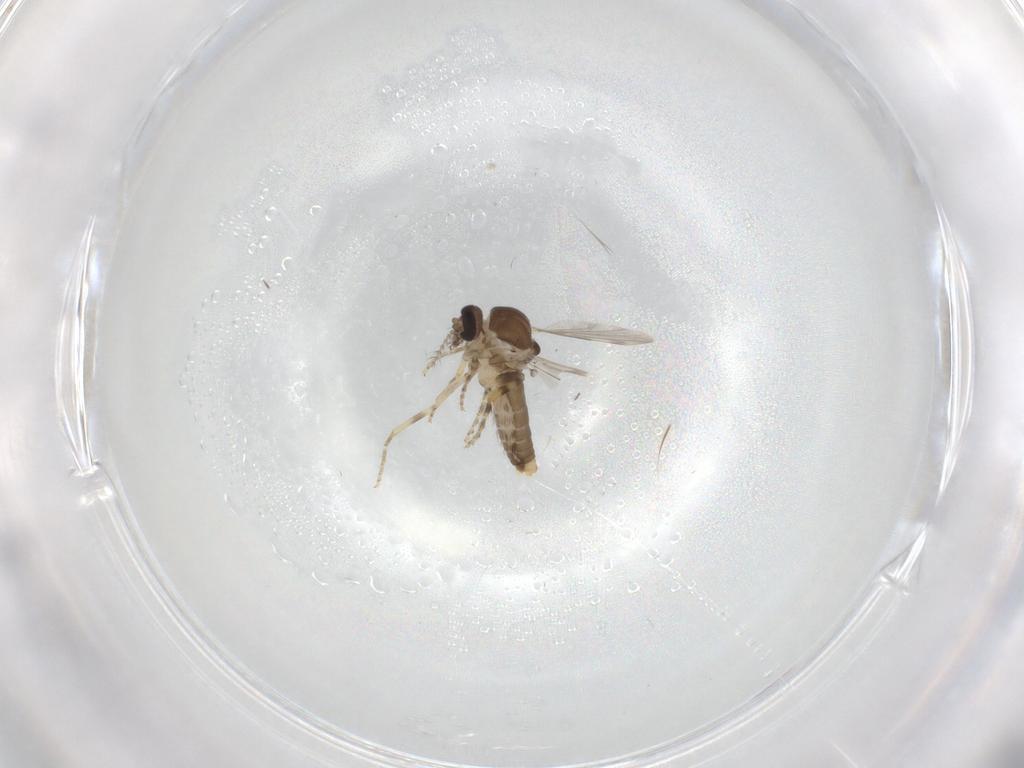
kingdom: Animalia
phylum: Arthropoda
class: Insecta
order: Diptera
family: Ceratopogonidae
